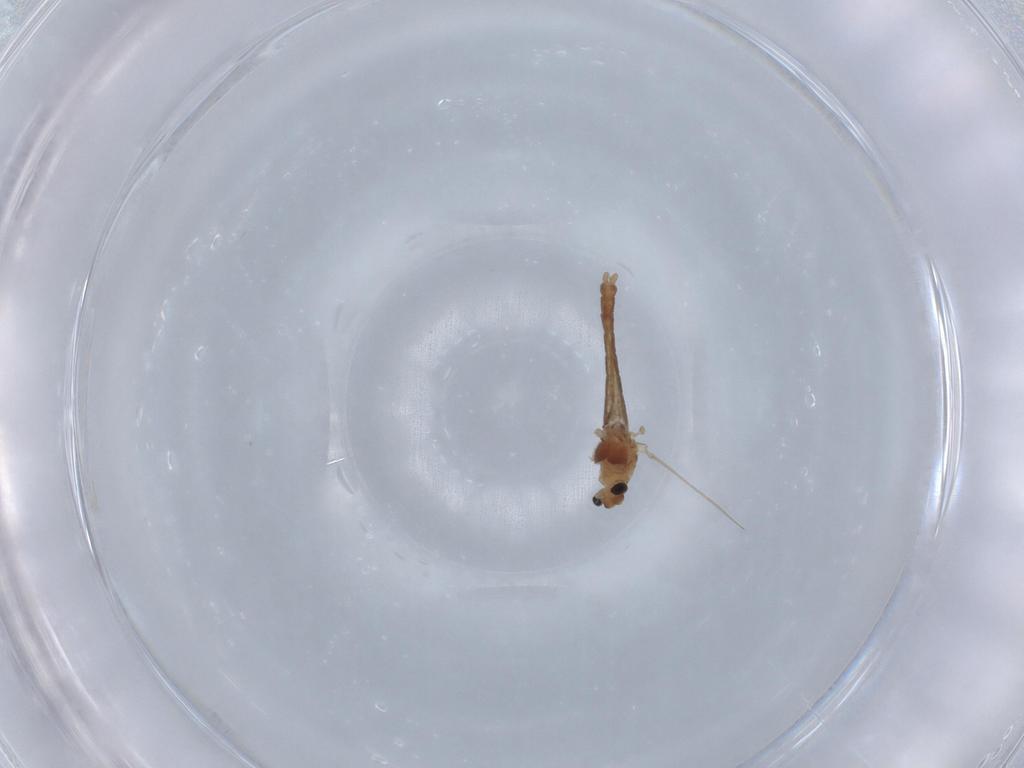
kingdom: Animalia
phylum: Arthropoda
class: Insecta
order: Diptera
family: Chironomidae
